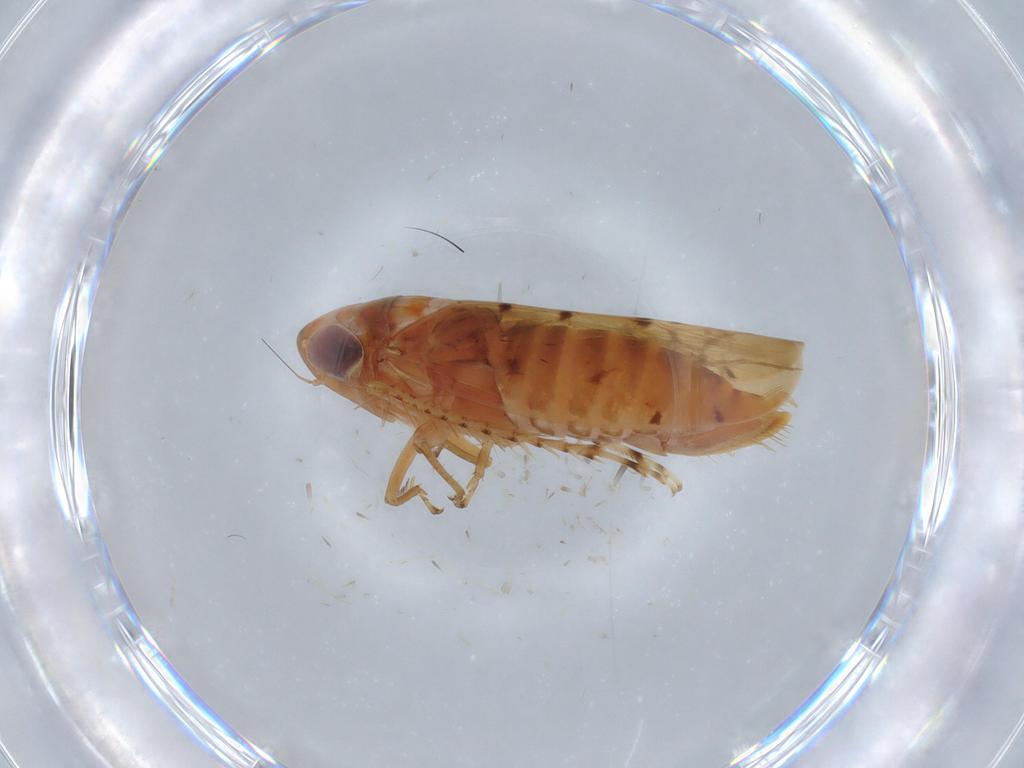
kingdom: Animalia
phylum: Arthropoda
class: Insecta
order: Hemiptera
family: Cicadellidae
